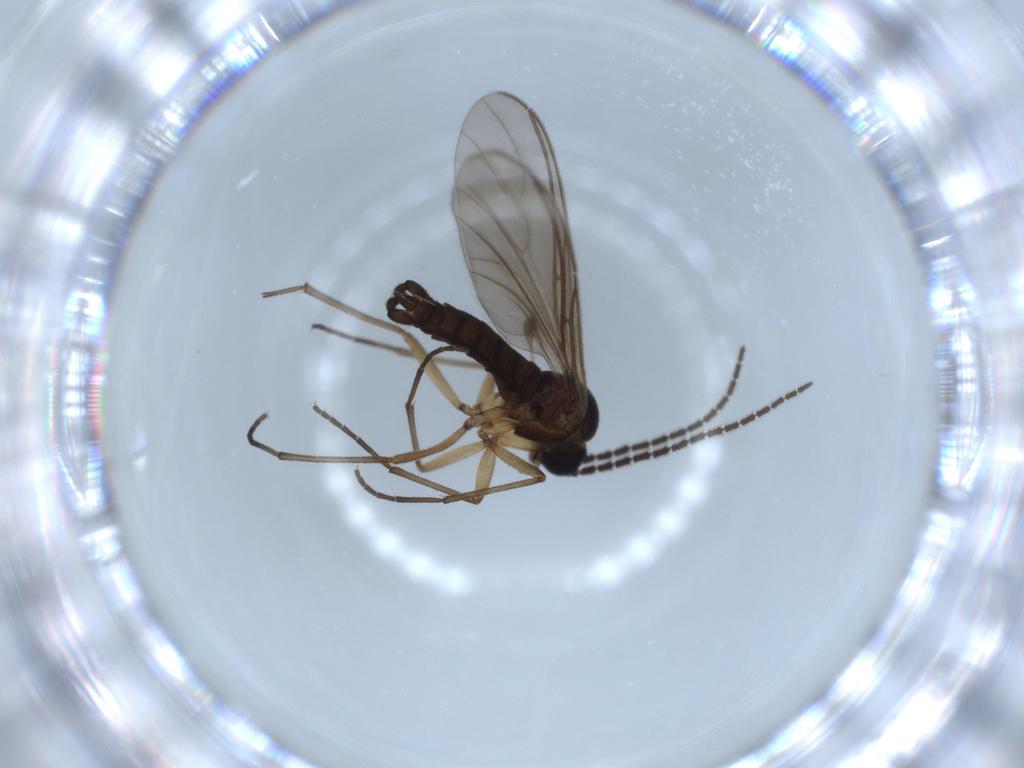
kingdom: Animalia
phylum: Arthropoda
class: Insecta
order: Diptera
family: Sciaridae
